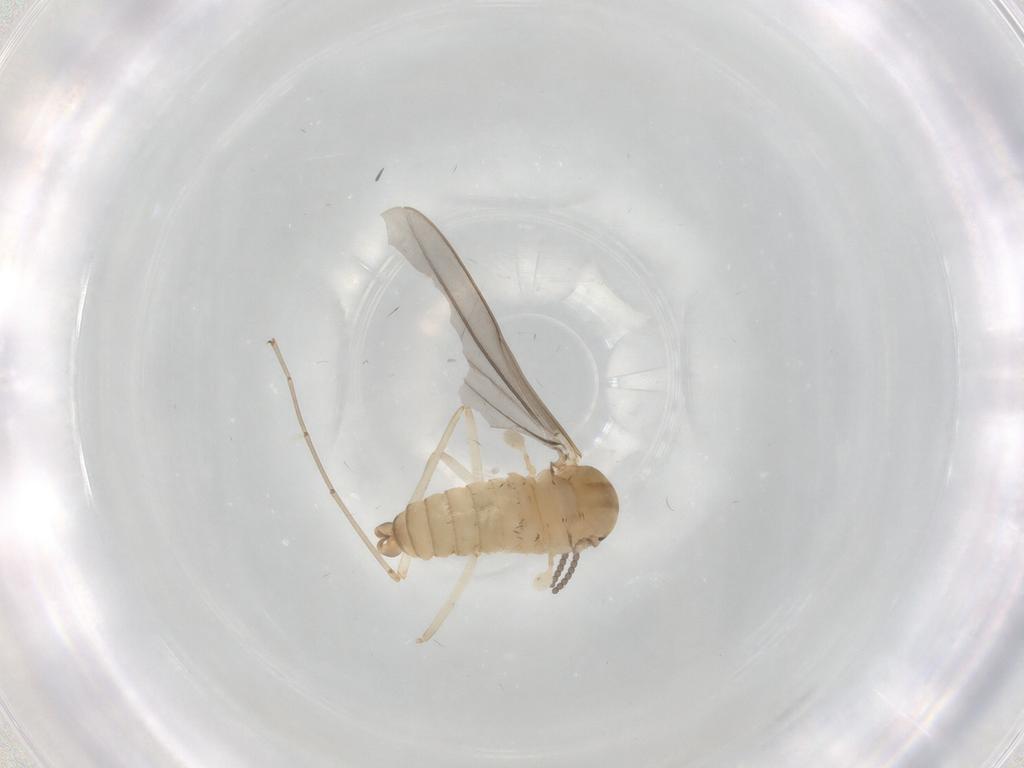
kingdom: Animalia
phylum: Arthropoda
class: Insecta
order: Diptera
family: Cecidomyiidae
